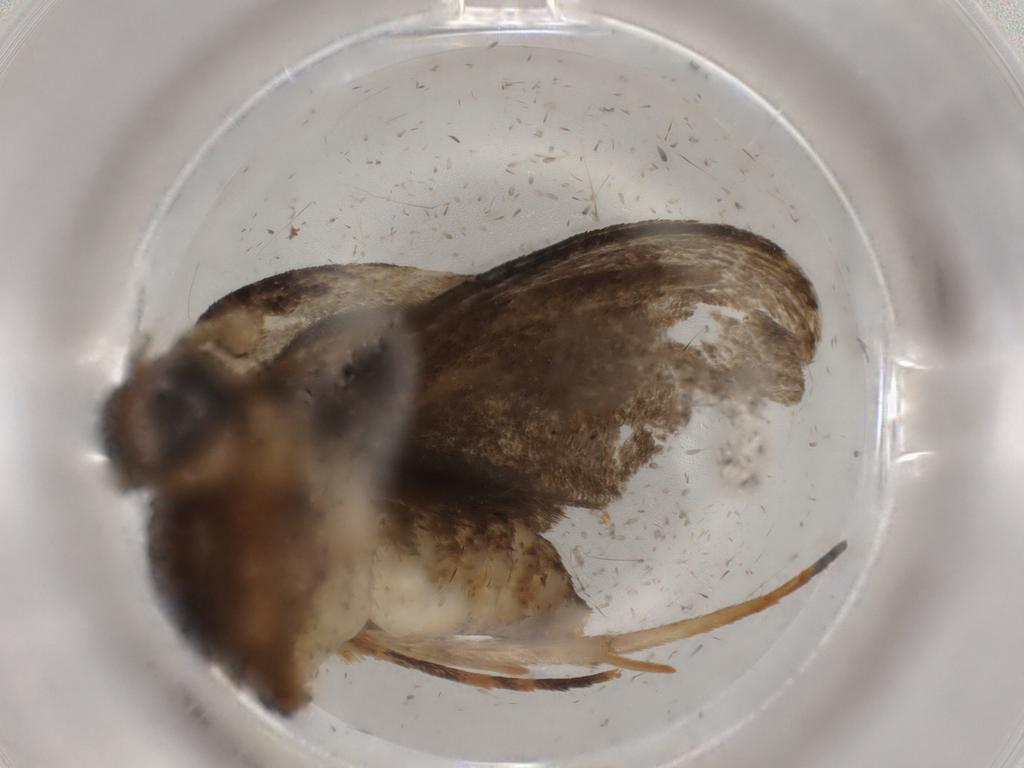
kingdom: Animalia
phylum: Arthropoda
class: Insecta
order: Lepidoptera
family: Tineidae
